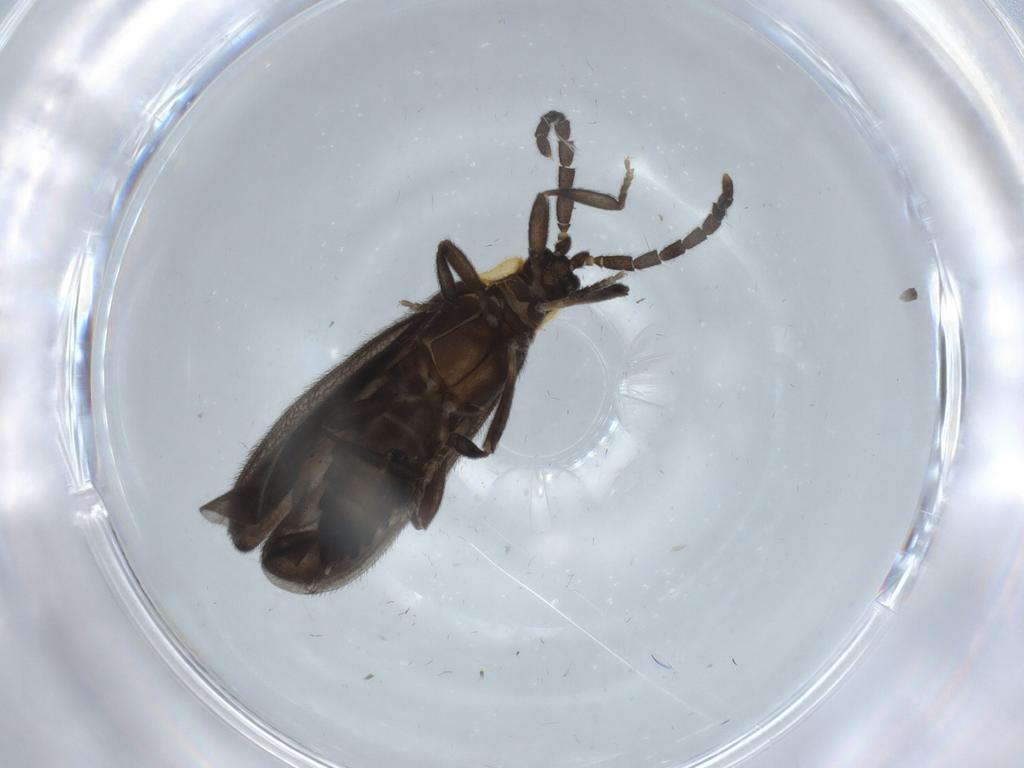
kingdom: Animalia
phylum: Arthropoda
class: Insecta
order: Coleoptera
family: Lycidae
